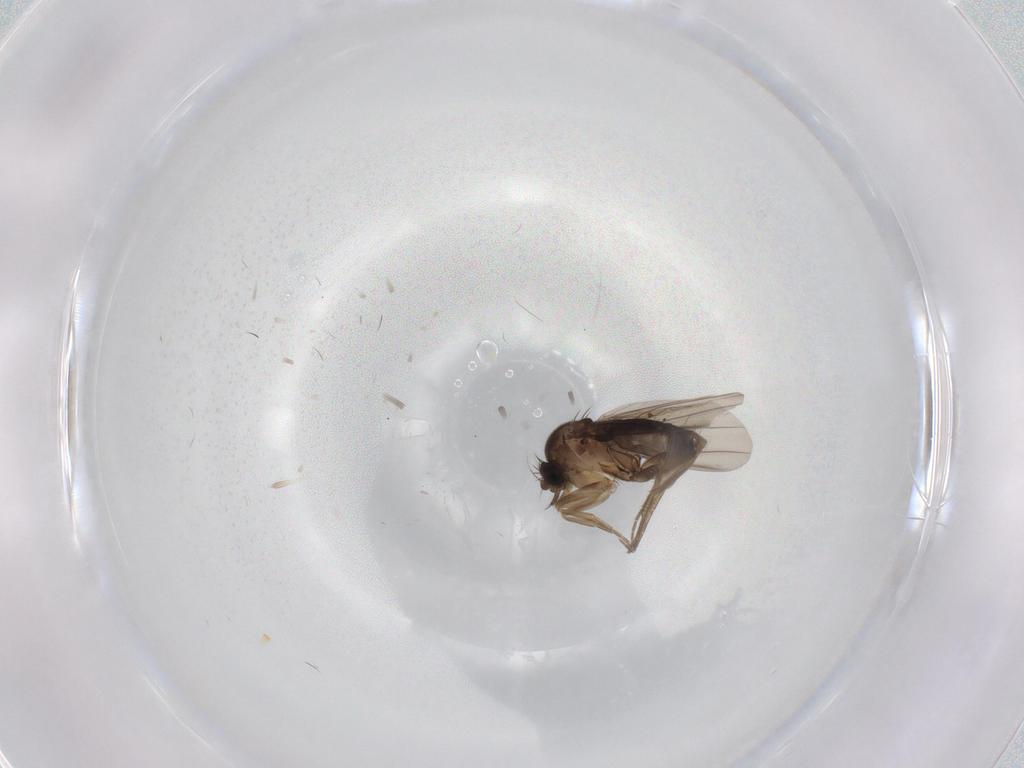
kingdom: Animalia
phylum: Arthropoda
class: Insecta
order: Diptera
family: Phoridae
